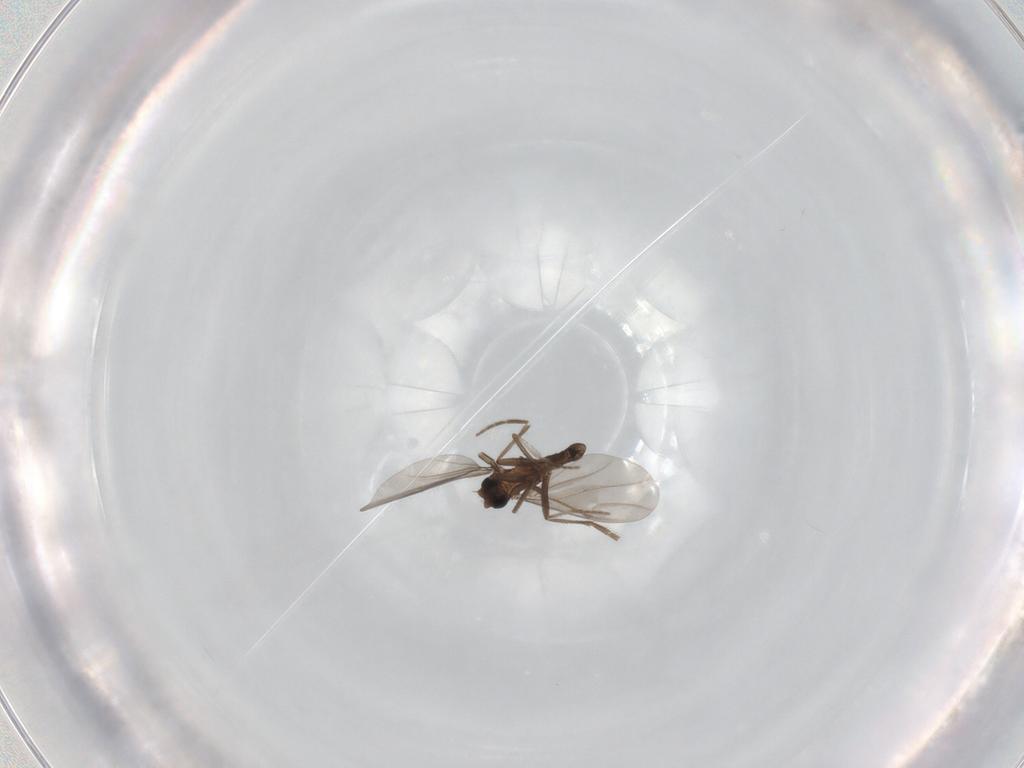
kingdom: Animalia
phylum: Arthropoda
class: Insecta
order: Diptera
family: Phoridae
